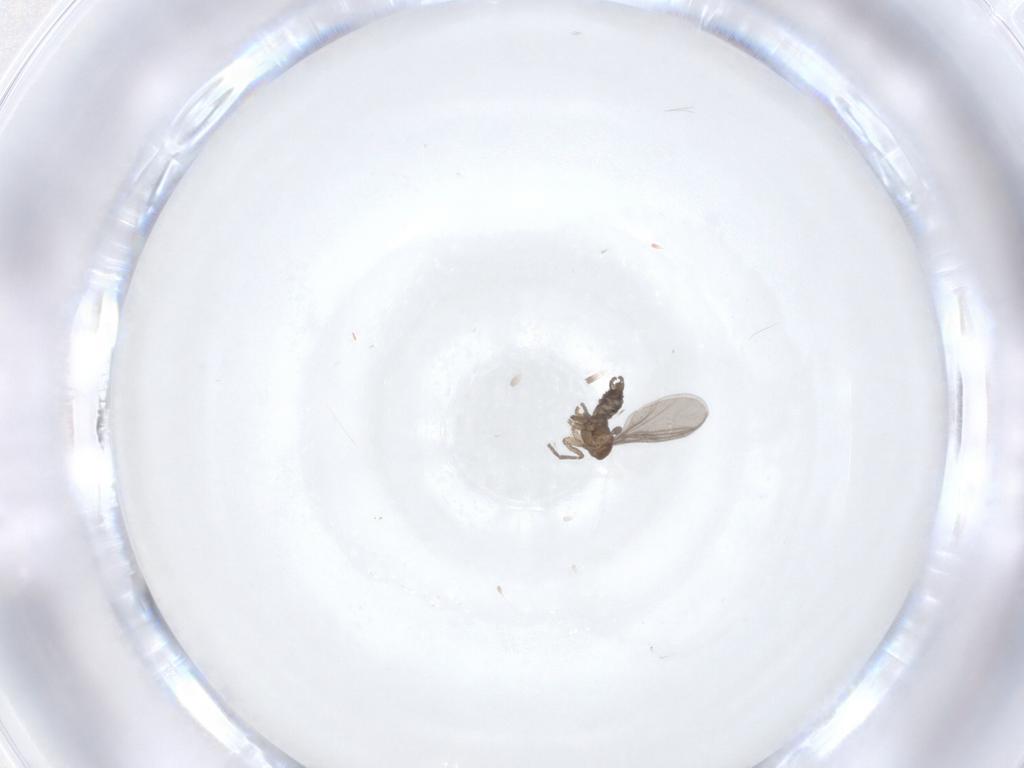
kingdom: Animalia
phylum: Arthropoda
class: Insecta
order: Diptera
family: Sciaridae
